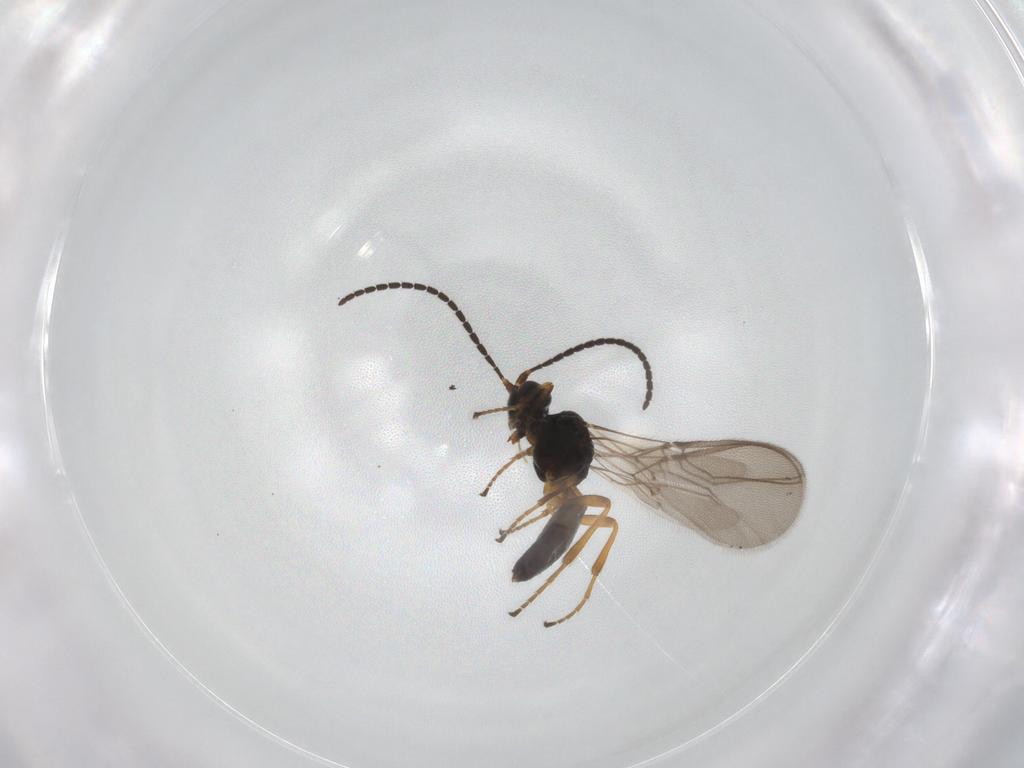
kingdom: Animalia
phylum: Arthropoda
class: Insecta
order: Hymenoptera
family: Braconidae
